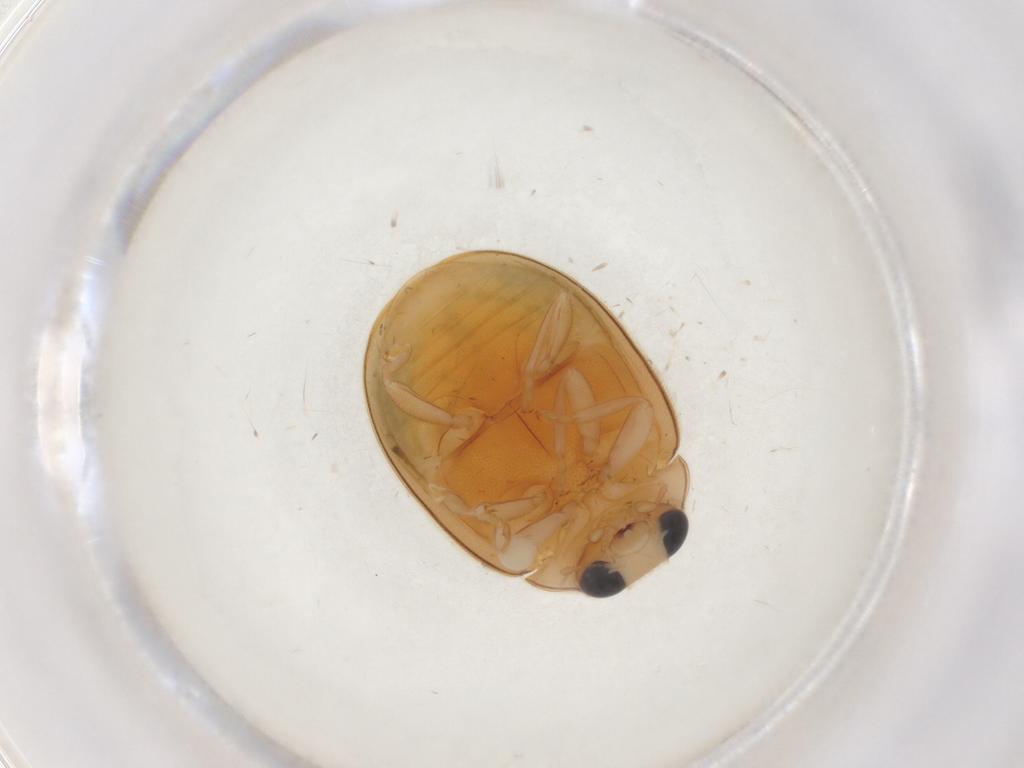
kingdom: Animalia
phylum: Arthropoda
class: Insecta
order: Coleoptera
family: Coccinellidae
